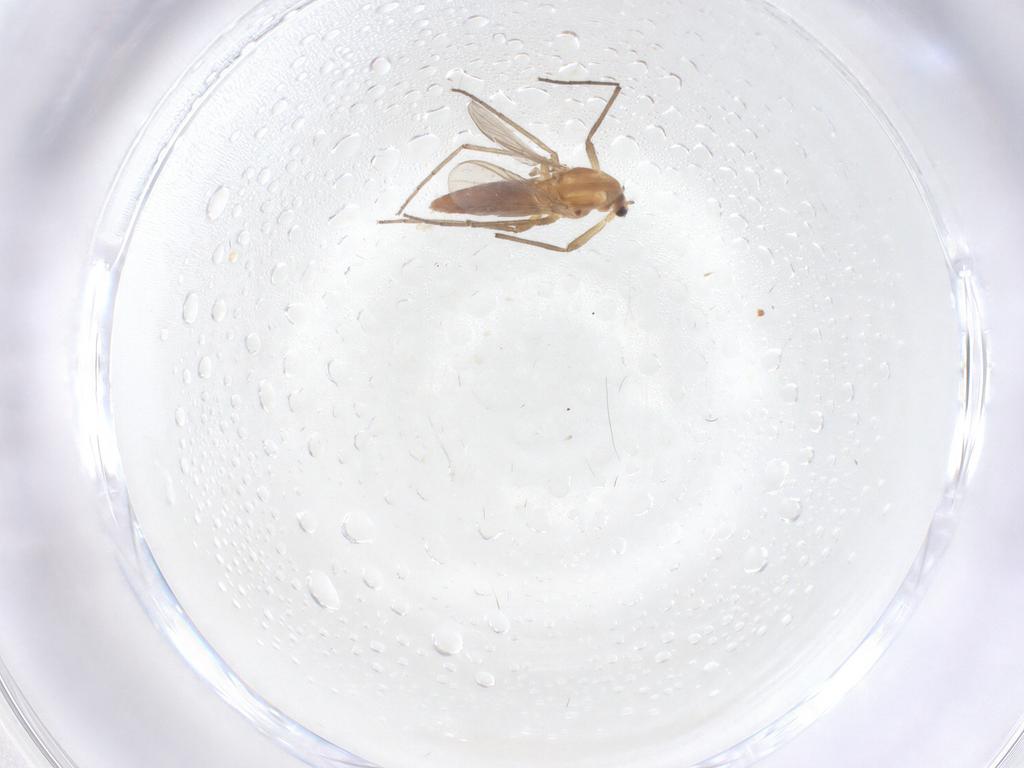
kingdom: Animalia
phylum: Arthropoda
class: Insecta
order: Diptera
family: Chironomidae
